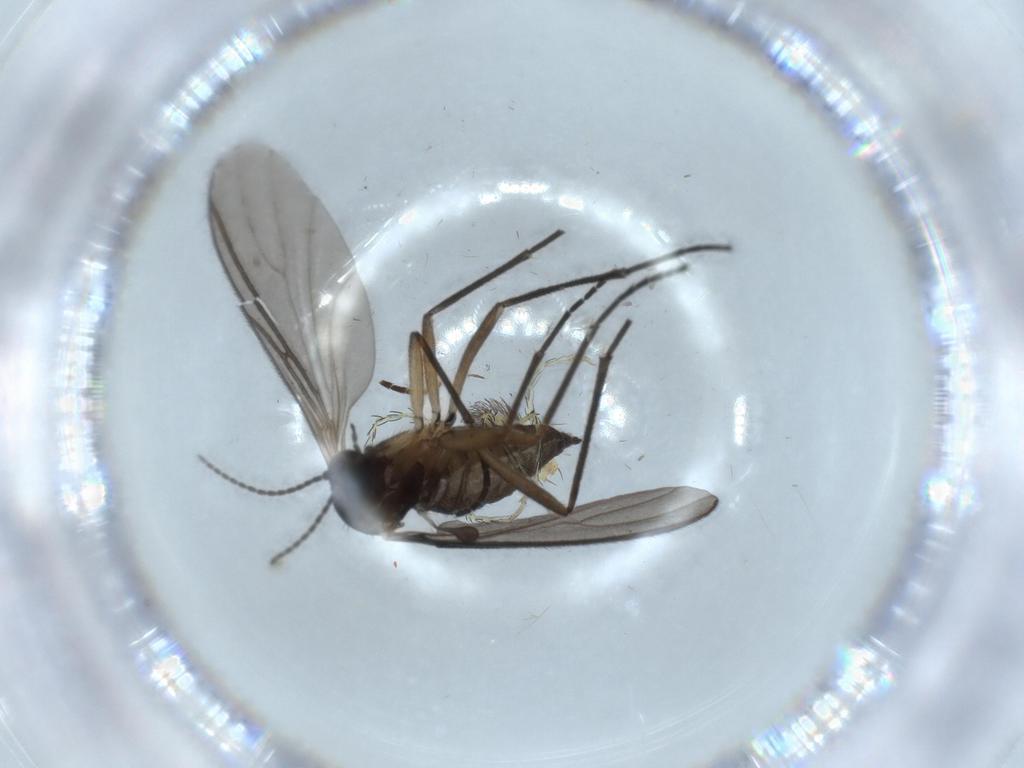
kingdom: Animalia
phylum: Arthropoda
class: Insecta
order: Diptera
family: Sciaridae
